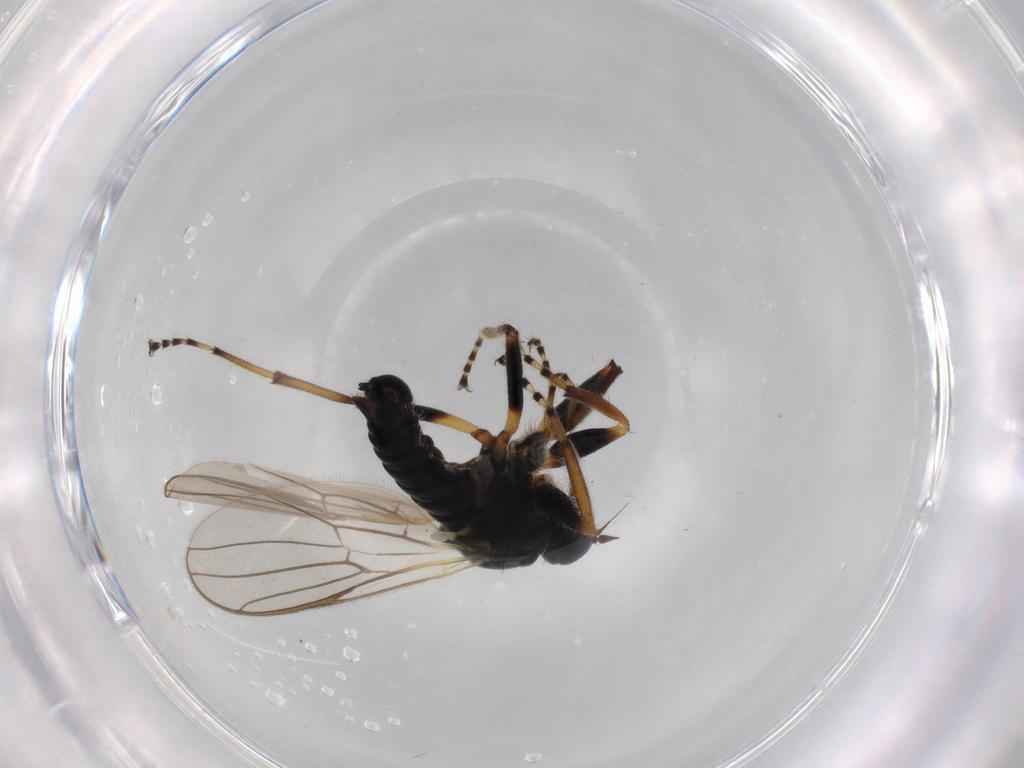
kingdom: Animalia
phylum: Arthropoda
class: Insecta
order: Diptera
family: Hybotidae
